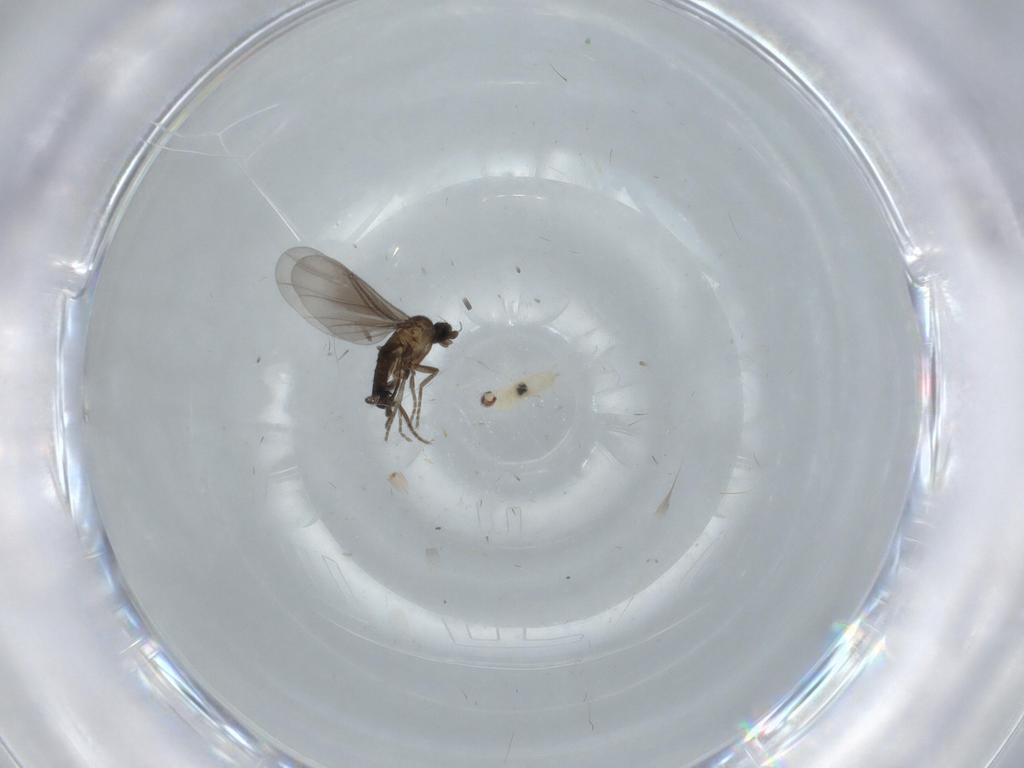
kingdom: Animalia
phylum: Arthropoda
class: Insecta
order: Diptera
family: Phoridae
